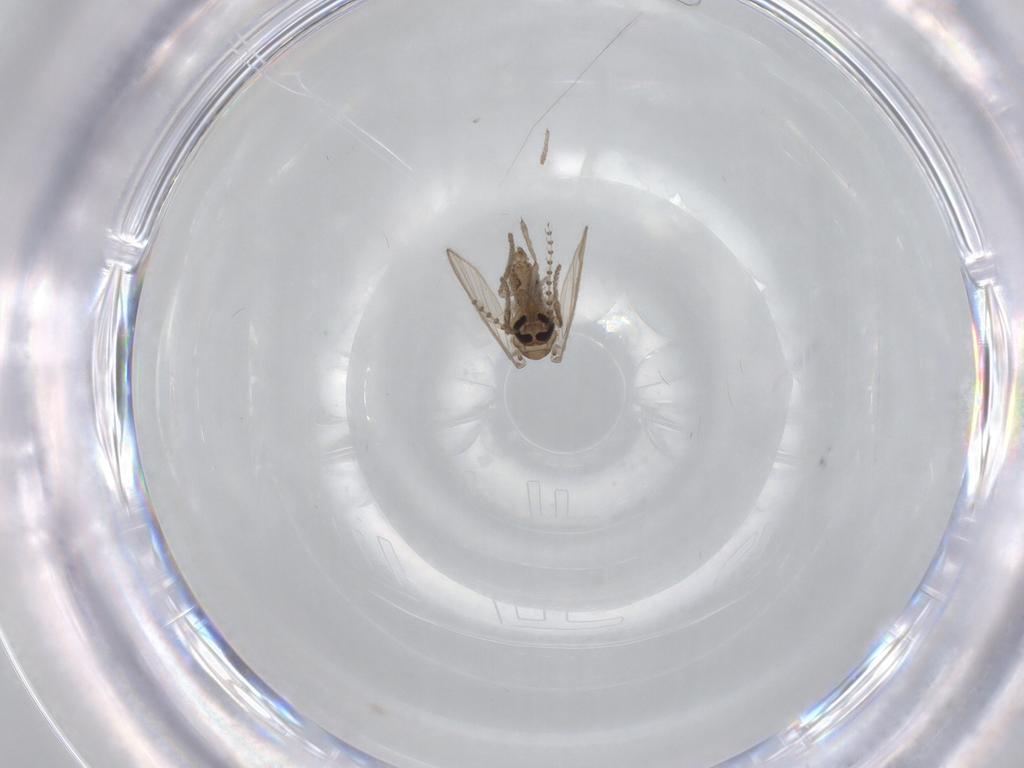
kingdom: Animalia
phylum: Arthropoda
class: Insecta
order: Diptera
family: Psychodidae
